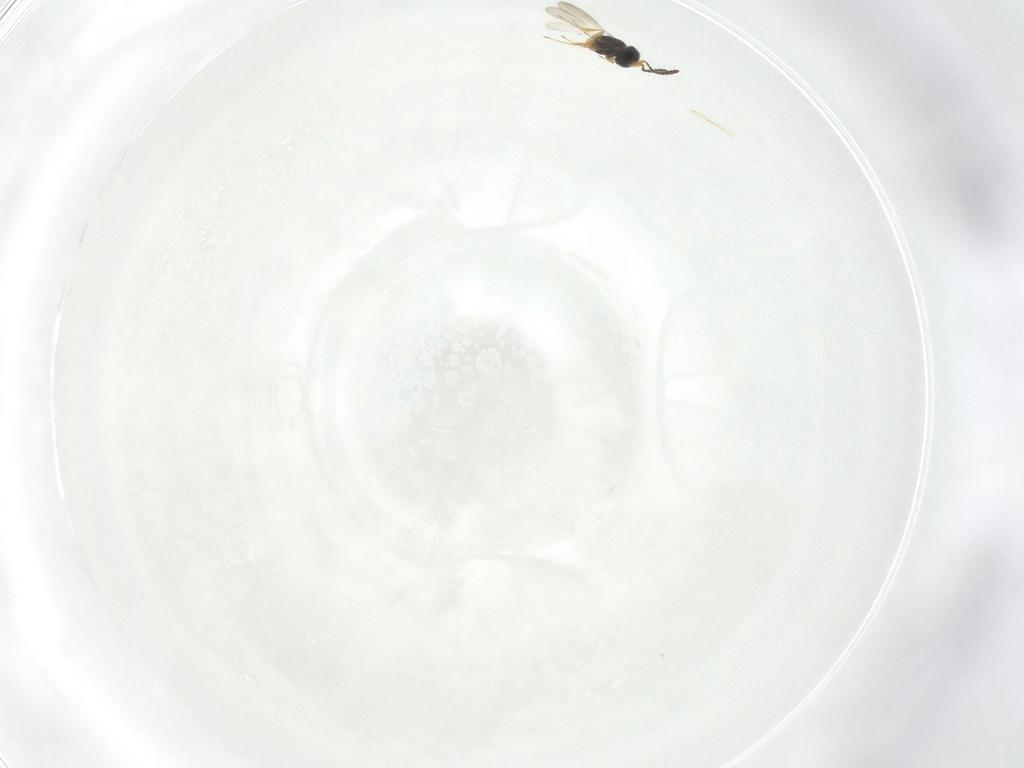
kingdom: Animalia
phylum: Arthropoda
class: Insecta
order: Hymenoptera
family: Scelionidae
